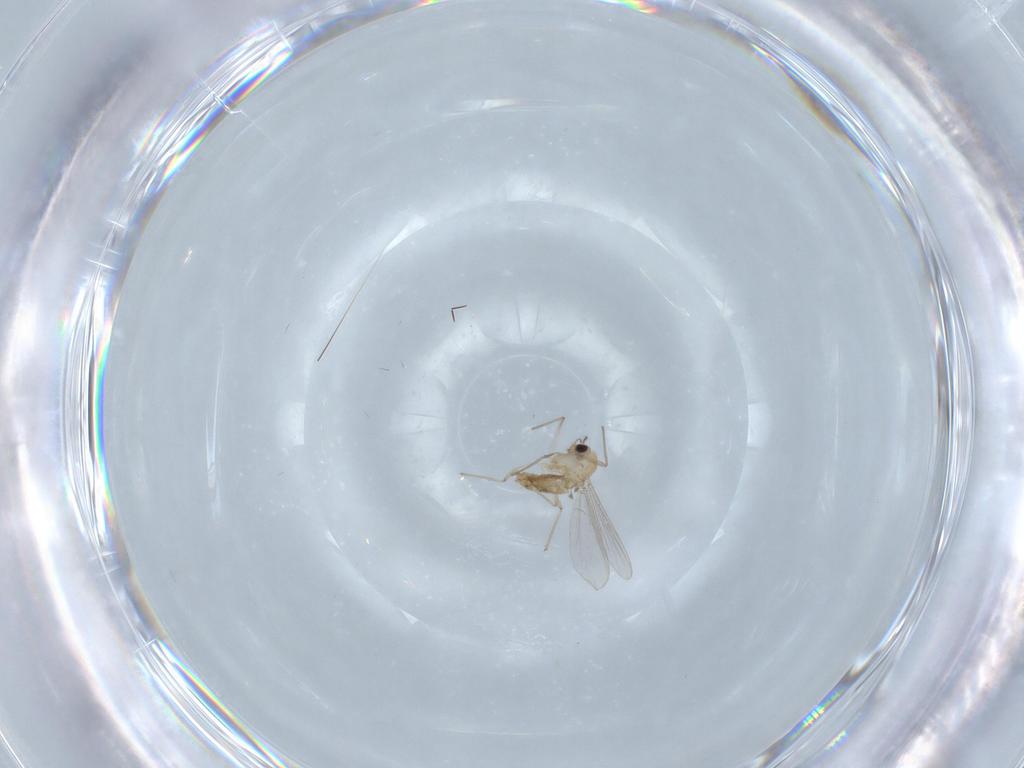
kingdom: Animalia
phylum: Arthropoda
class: Insecta
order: Diptera
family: Chironomidae
